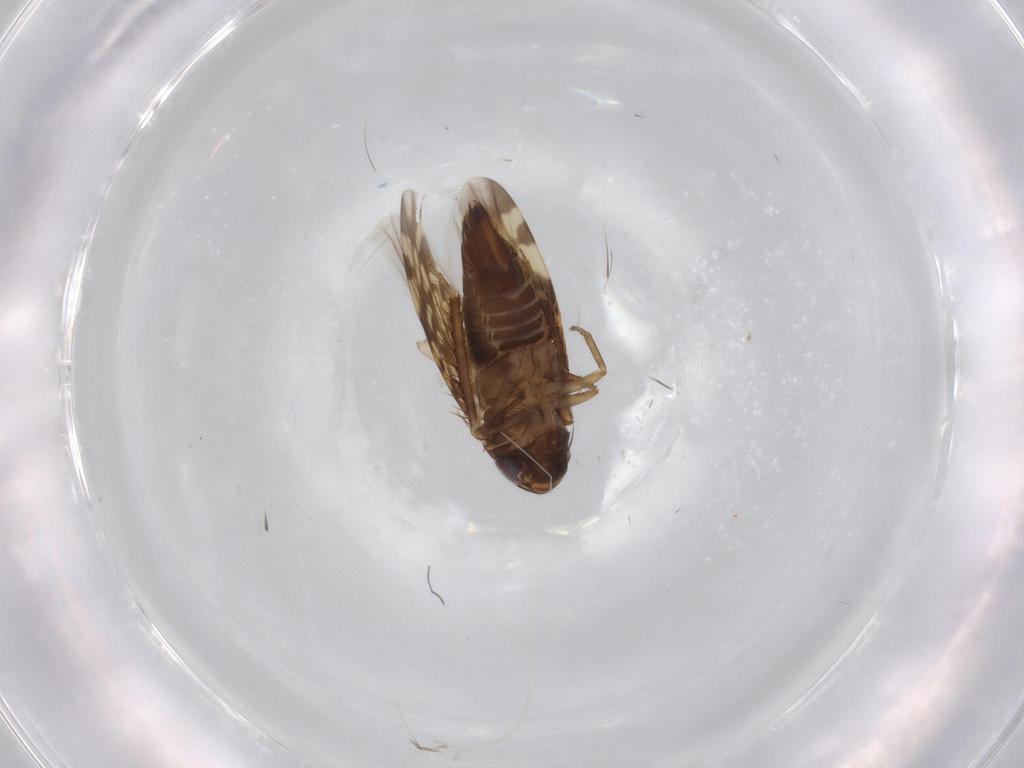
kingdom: Animalia
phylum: Arthropoda
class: Insecta
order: Hemiptera
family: Cicadellidae
